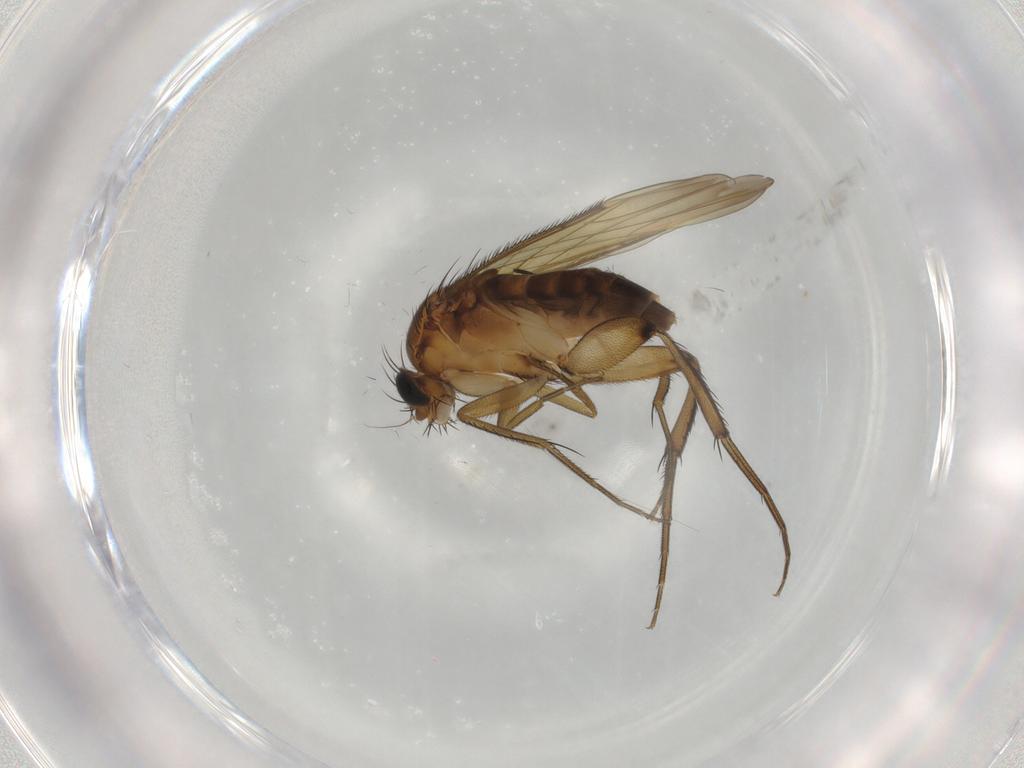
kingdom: Animalia
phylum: Arthropoda
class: Insecta
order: Diptera
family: Phoridae
